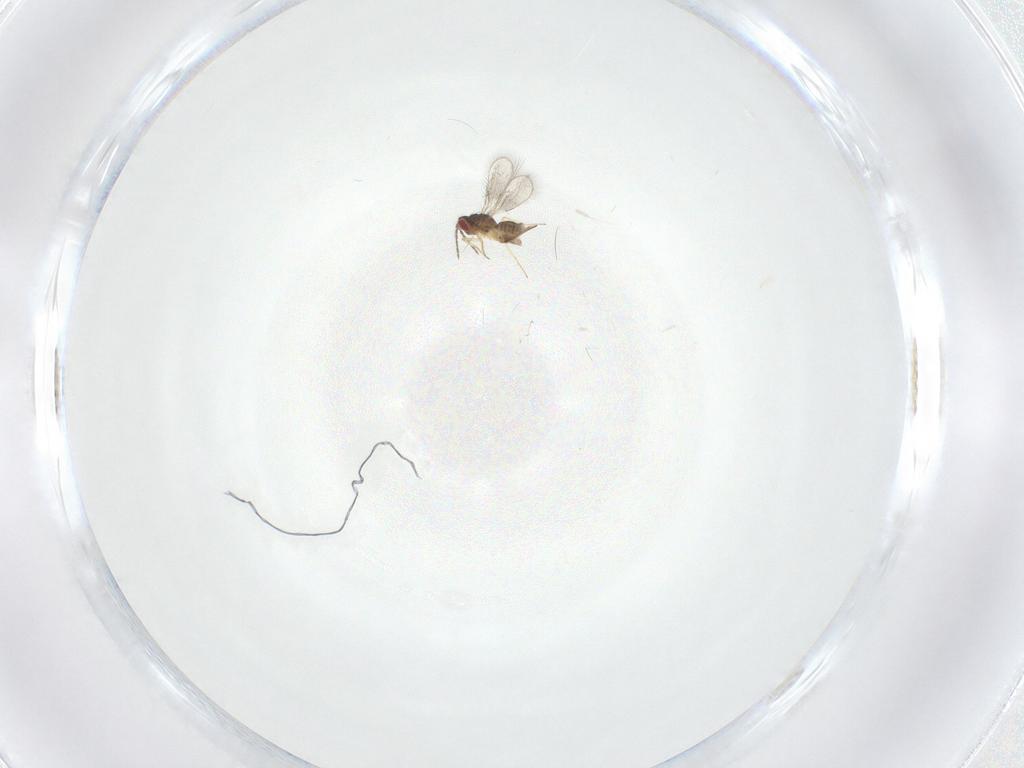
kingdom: Animalia
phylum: Arthropoda
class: Insecta
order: Hymenoptera
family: Eulophidae
